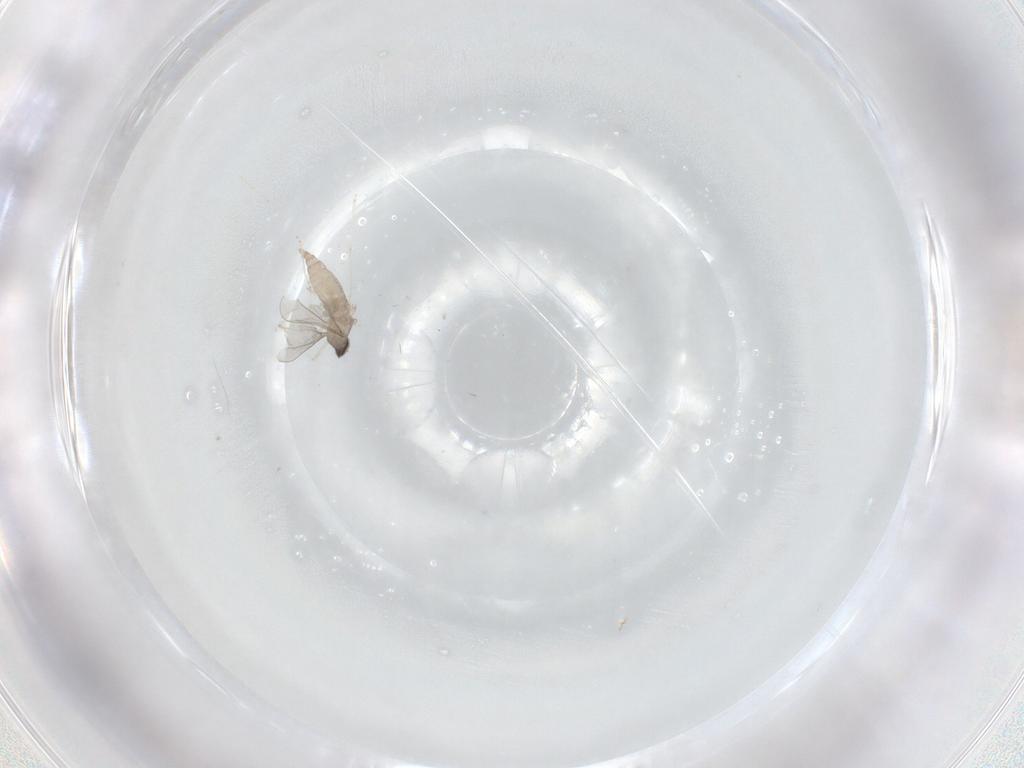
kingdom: Animalia
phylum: Arthropoda
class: Insecta
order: Diptera
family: Cecidomyiidae
